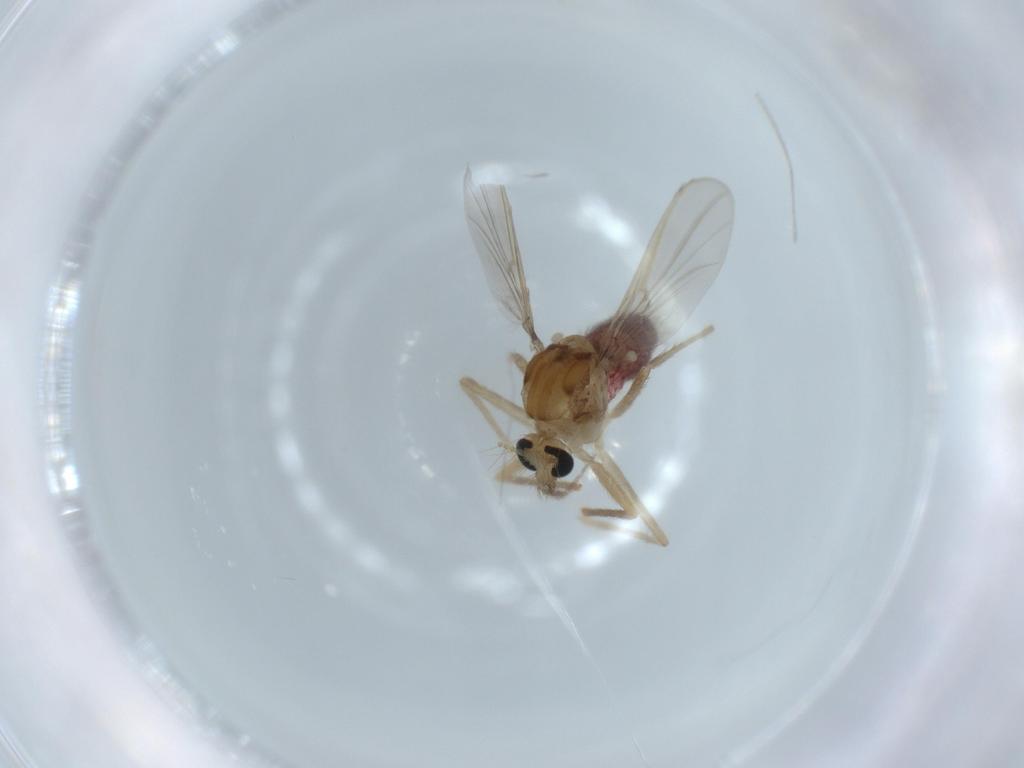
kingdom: Animalia
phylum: Arthropoda
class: Insecta
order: Diptera
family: Chironomidae
